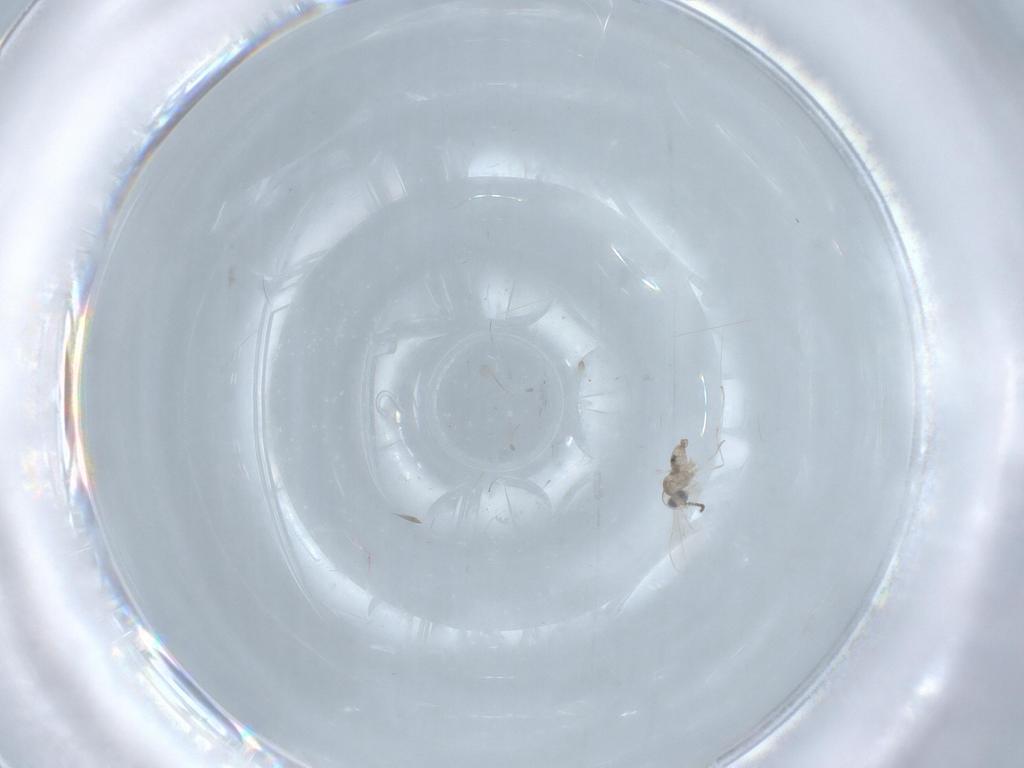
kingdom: Animalia
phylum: Arthropoda
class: Insecta
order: Diptera
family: Cecidomyiidae
